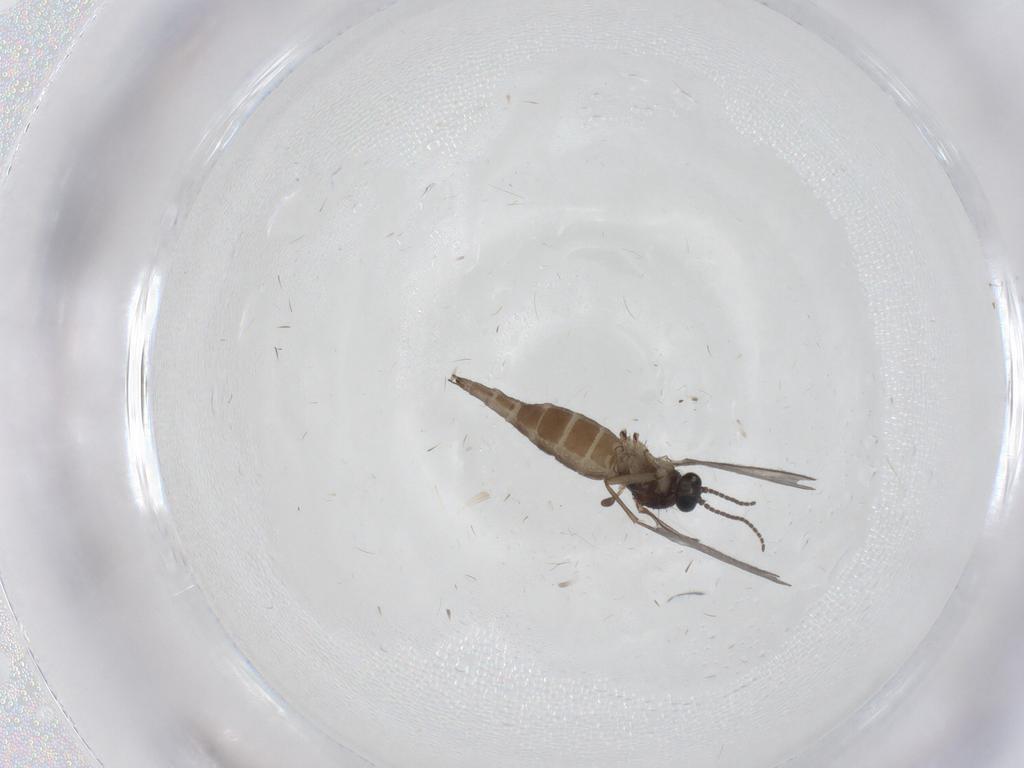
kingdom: Animalia
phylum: Arthropoda
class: Insecta
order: Diptera
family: Sciaridae
